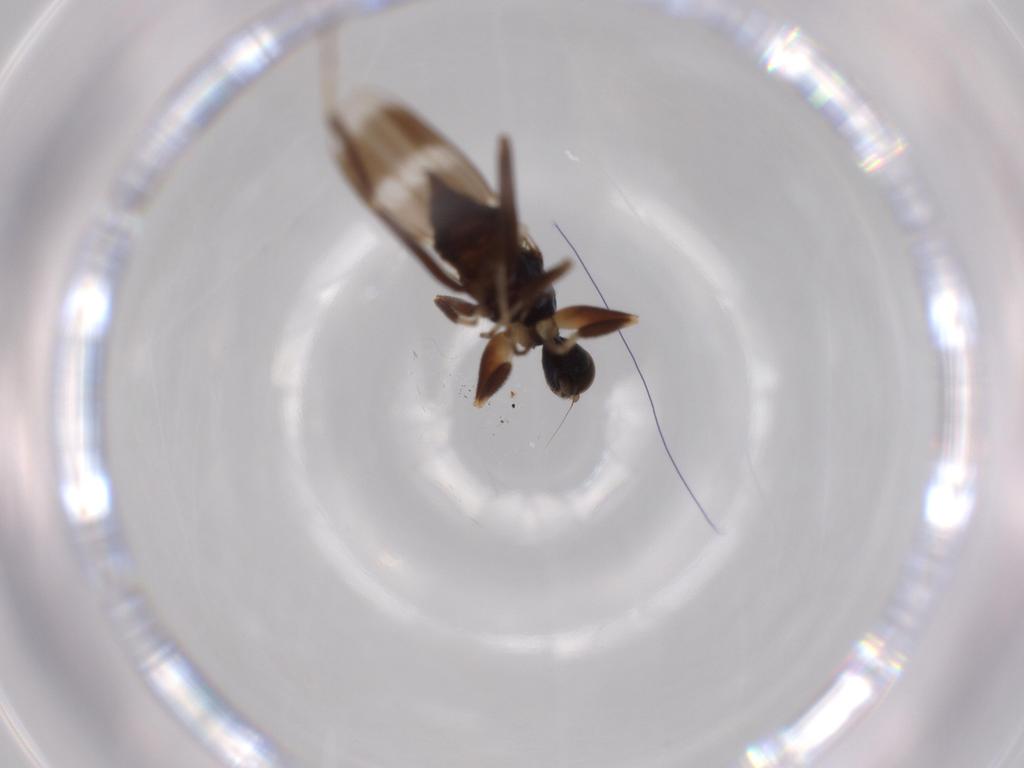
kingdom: Animalia
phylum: Arthropoda
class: Insecta
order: Diptera
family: Hybotidae
